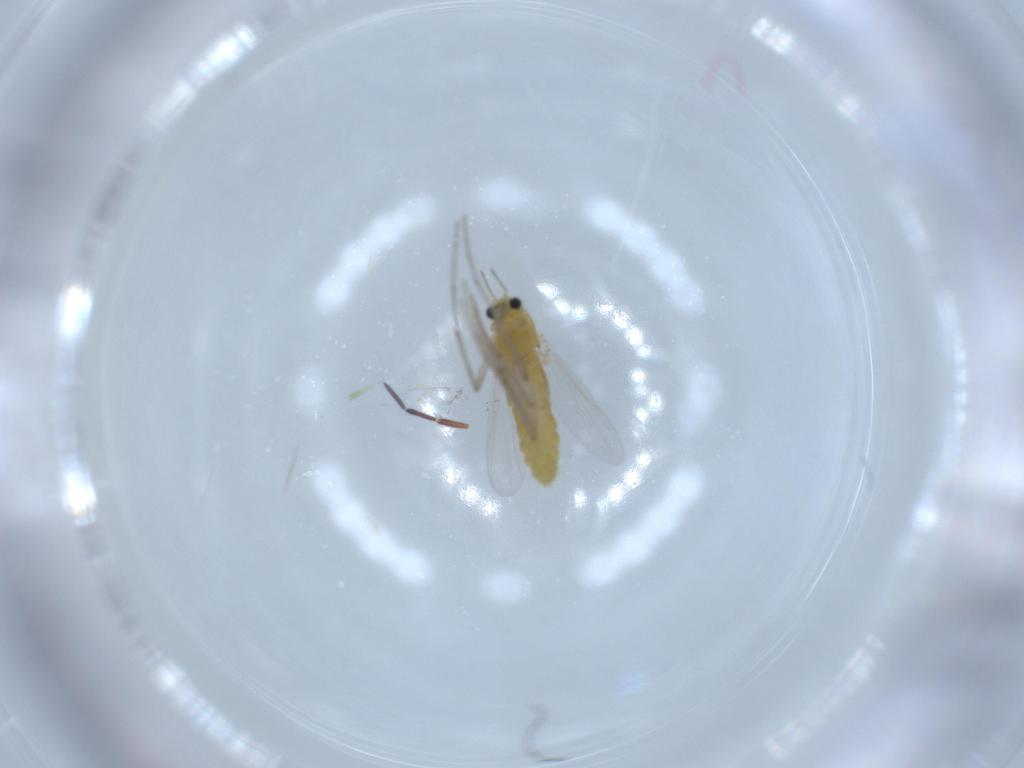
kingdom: Animalia
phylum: Arthropoda
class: Insecta
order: Diptera
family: Chironomidae
